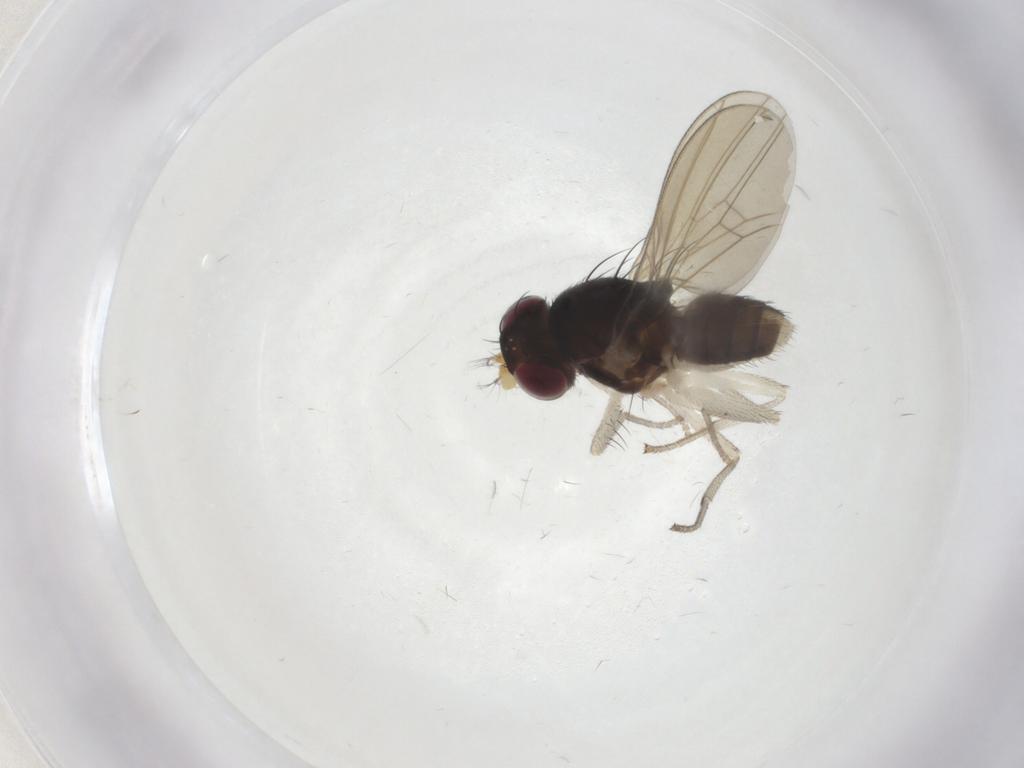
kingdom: Animalia
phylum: Arthropoda
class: Insecta
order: Diptera
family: Lauxaniidae
